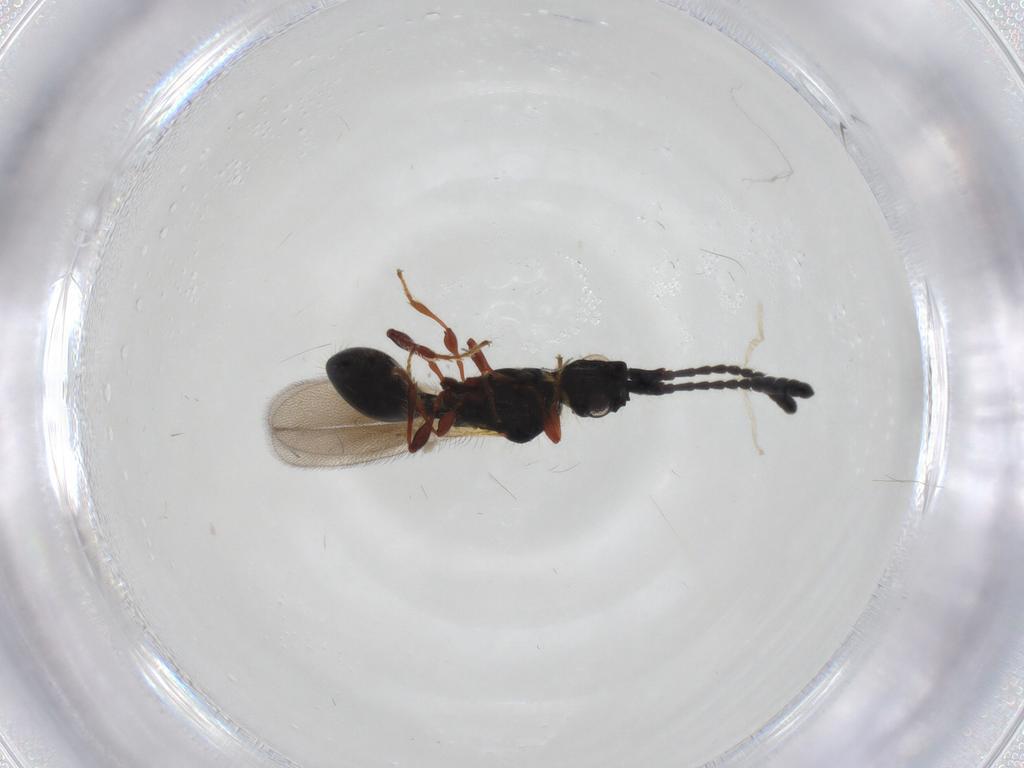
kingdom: Animalia
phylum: Arthropoda
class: Insecta
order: Hymenoptera
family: Diapriidae
